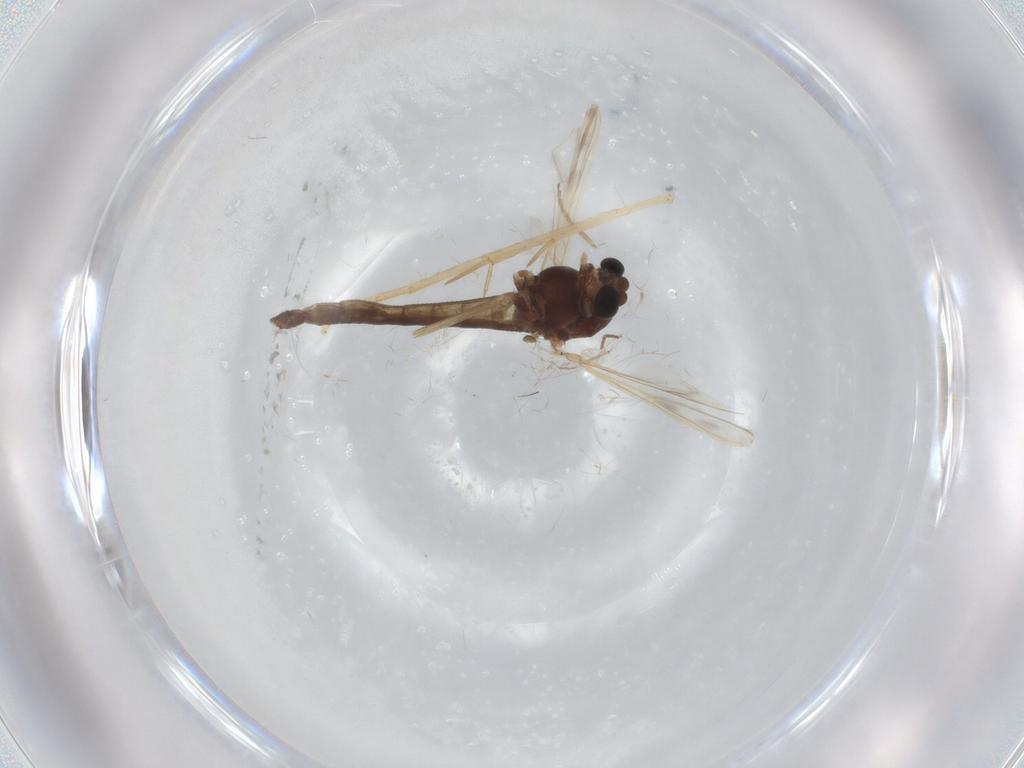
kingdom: Animalia
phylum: Arthropoda
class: Insecta
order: Diptera
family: Chironomidae
